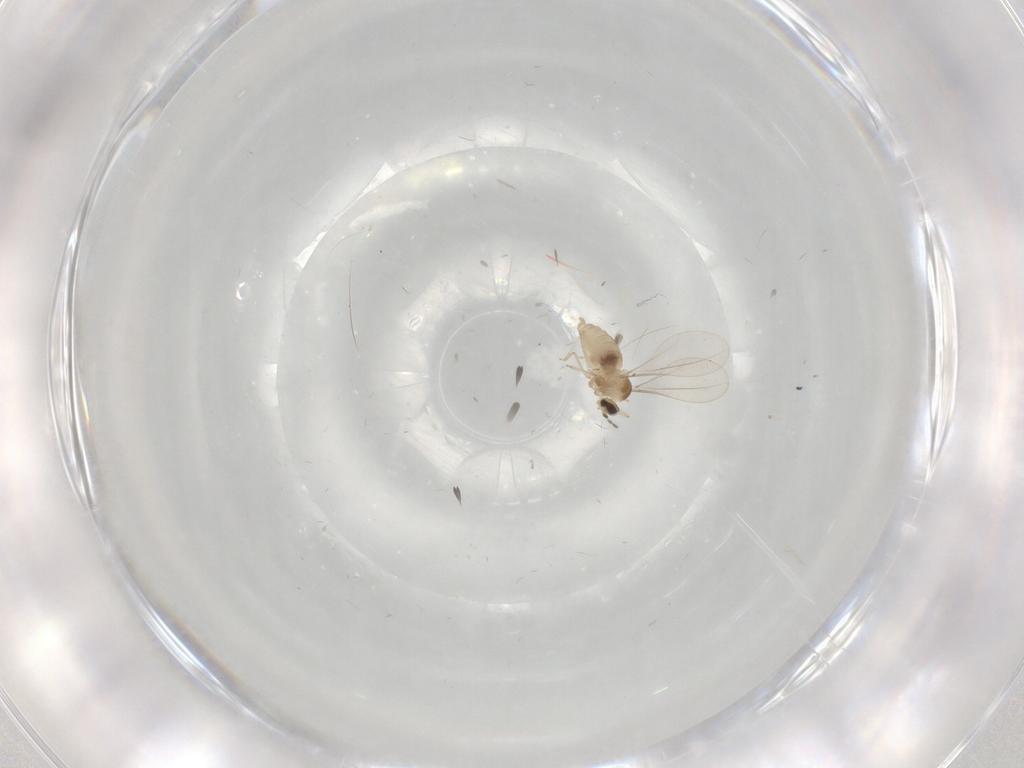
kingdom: Animalia
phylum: Arthropoda
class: Insecta
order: Diptera
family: Cecidomyiidae
